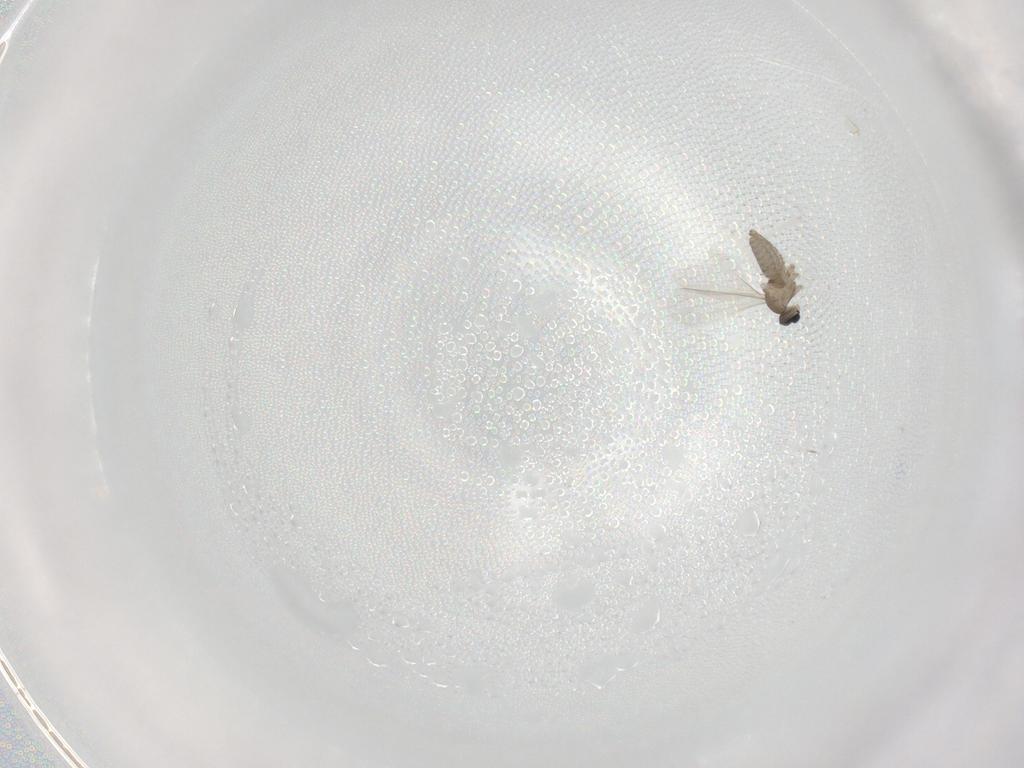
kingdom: Animalia
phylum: Arthropoda
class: Insecta
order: Diptera
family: Cecidomyiidae
